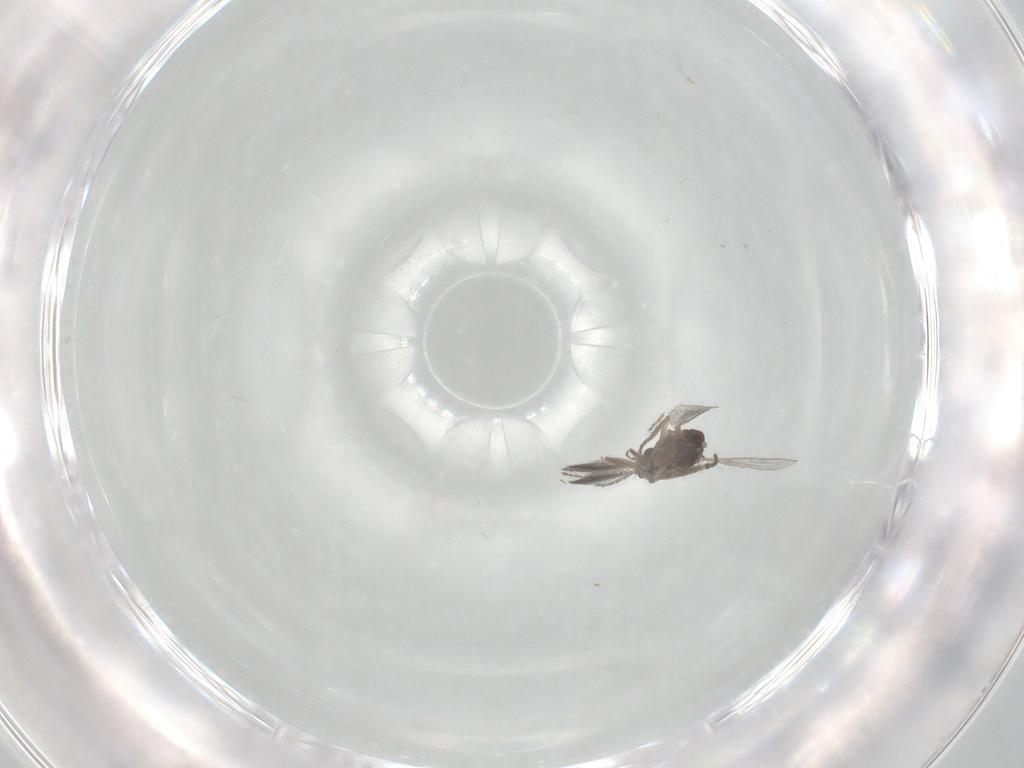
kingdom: Animalia
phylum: Arthropoda
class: Insecta
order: Diptera
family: Ceratopogonidae
